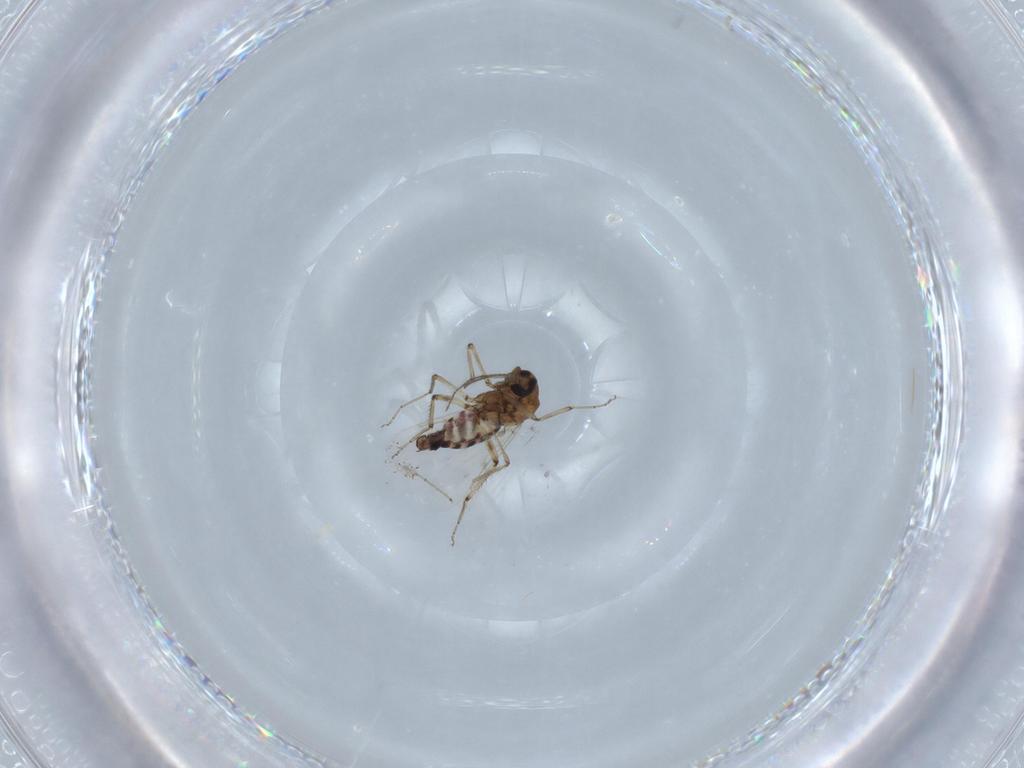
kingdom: Animalia
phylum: Arthropoda
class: Insecta
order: Diptera
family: Ceratopogonidae
